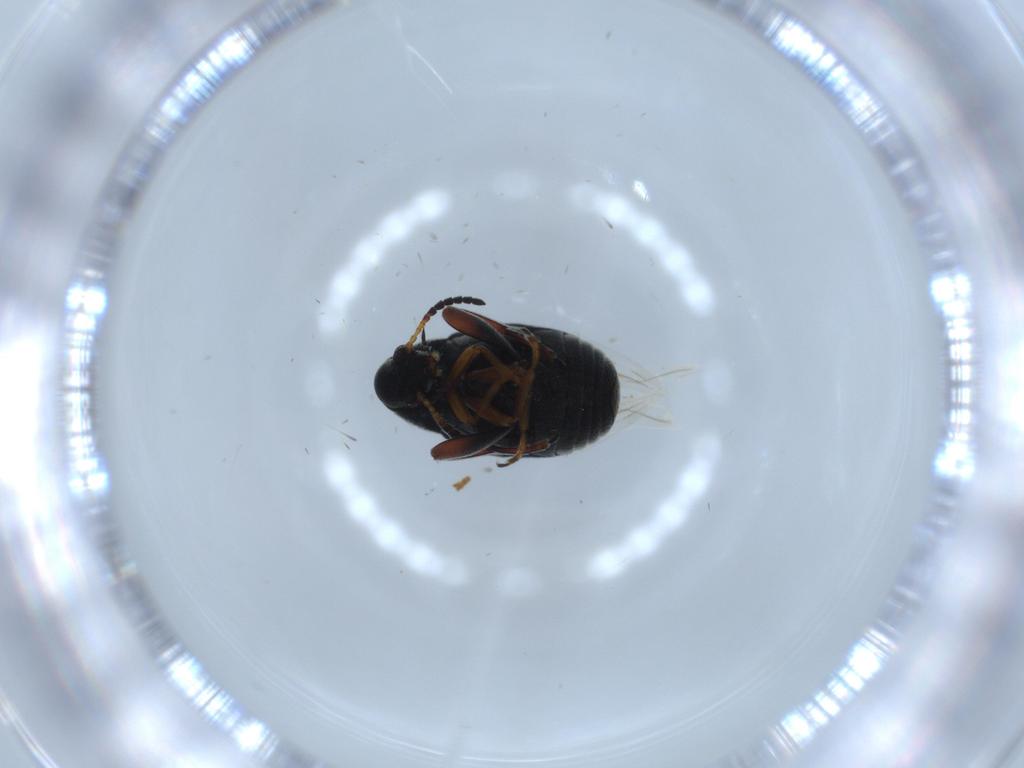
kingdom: Animalia
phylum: Arthropoda
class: Insecta
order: Coleoptera
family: Chrysomelidae
